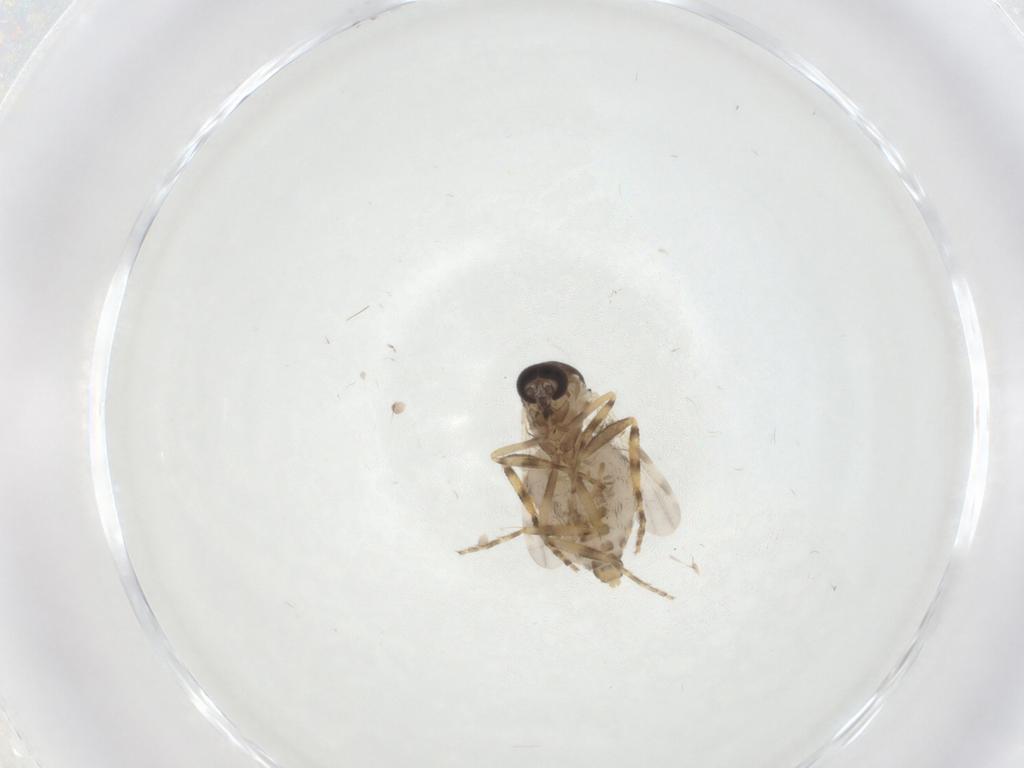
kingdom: Animalia
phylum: Arthropoda
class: Insecta
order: Diptera
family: Ceratopogonidae
